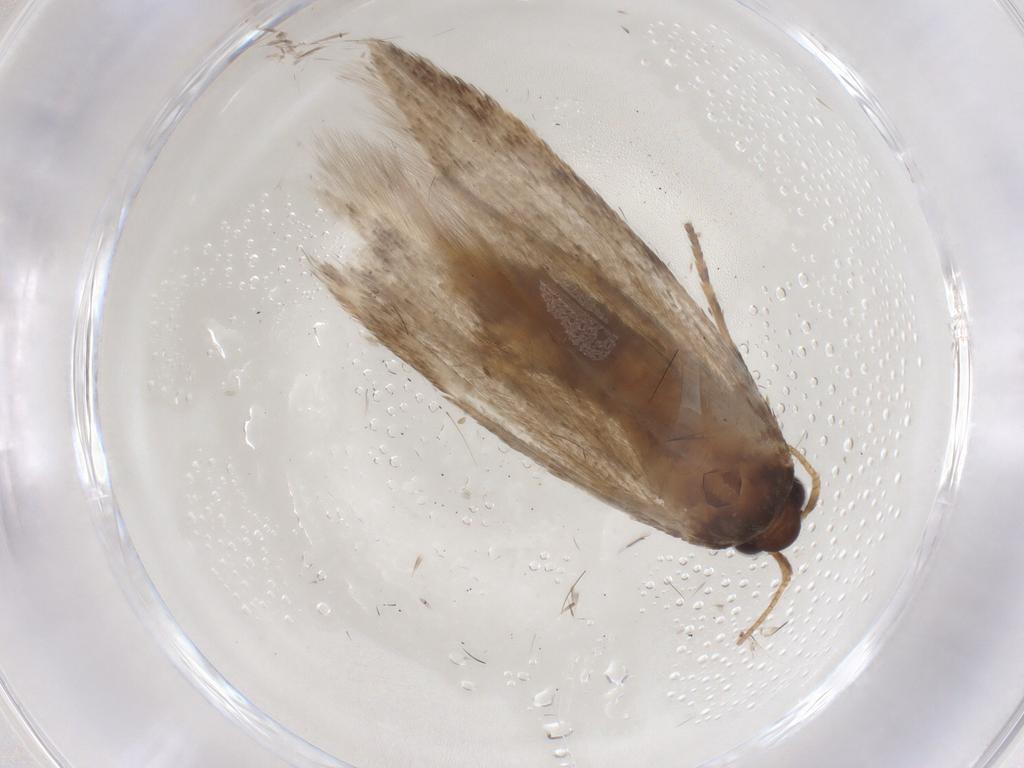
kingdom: Animalia
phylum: Arthropoda
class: Insecta
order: Lepidoptera
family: Coleophoridae
